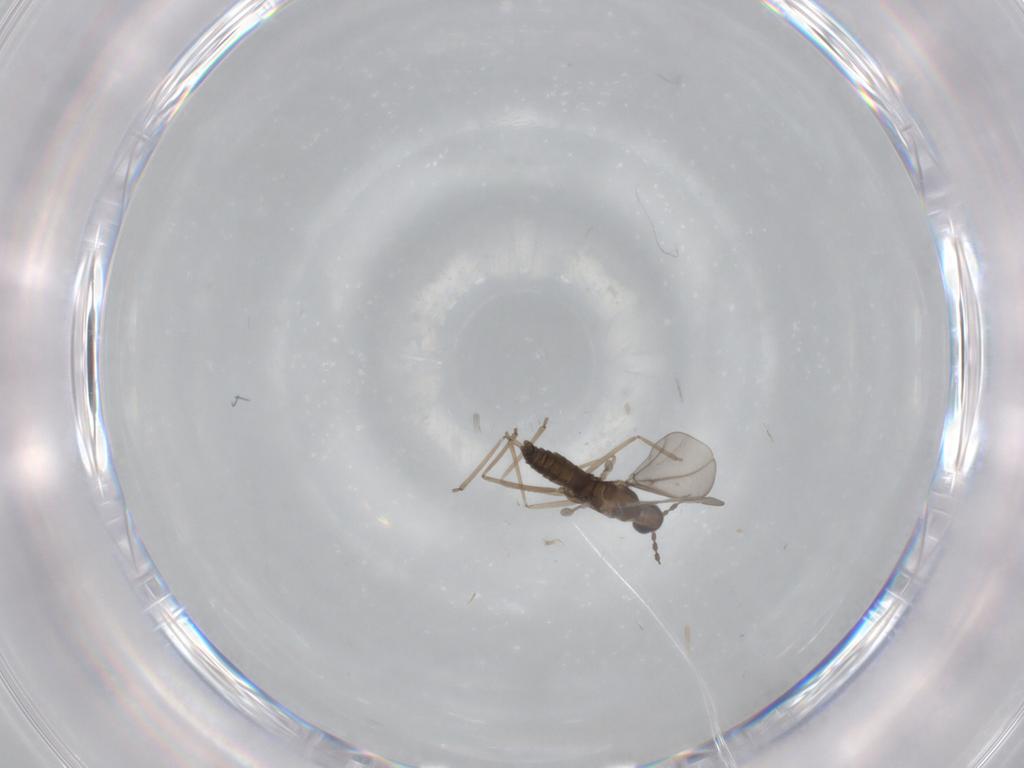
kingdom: Animalia
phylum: Arthropoda
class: Insecta
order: Diptera
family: Cecidomyiidae
